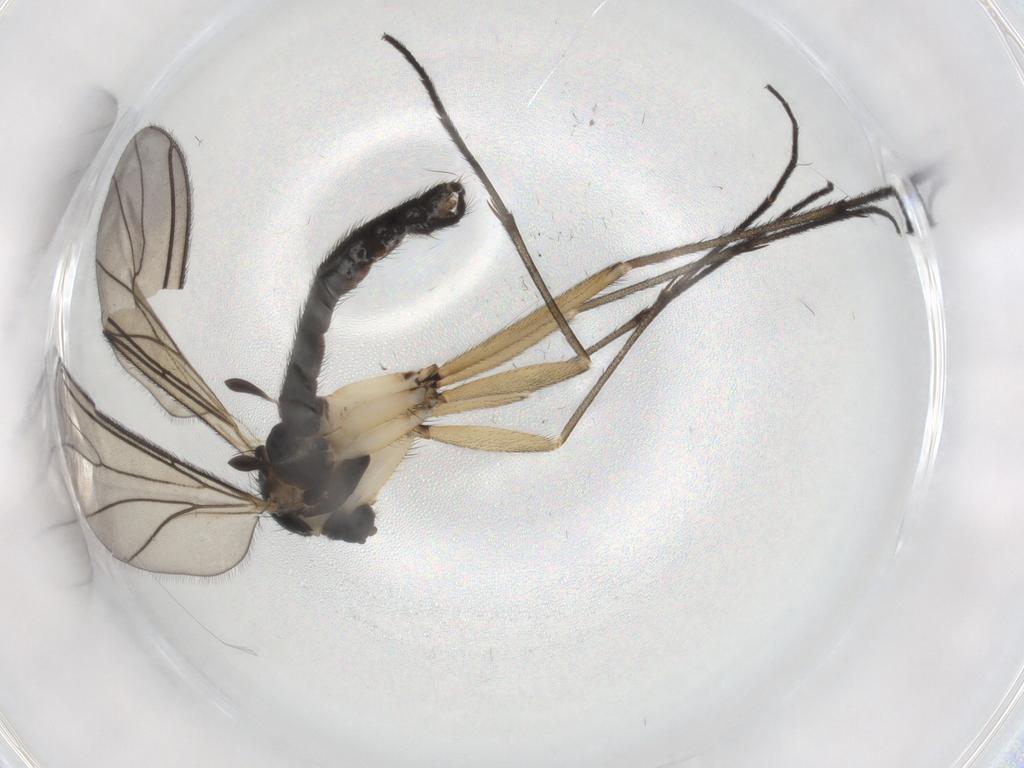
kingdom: Animalia
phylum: Arthropoda
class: Insecta
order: Diptera
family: Sciaridae
